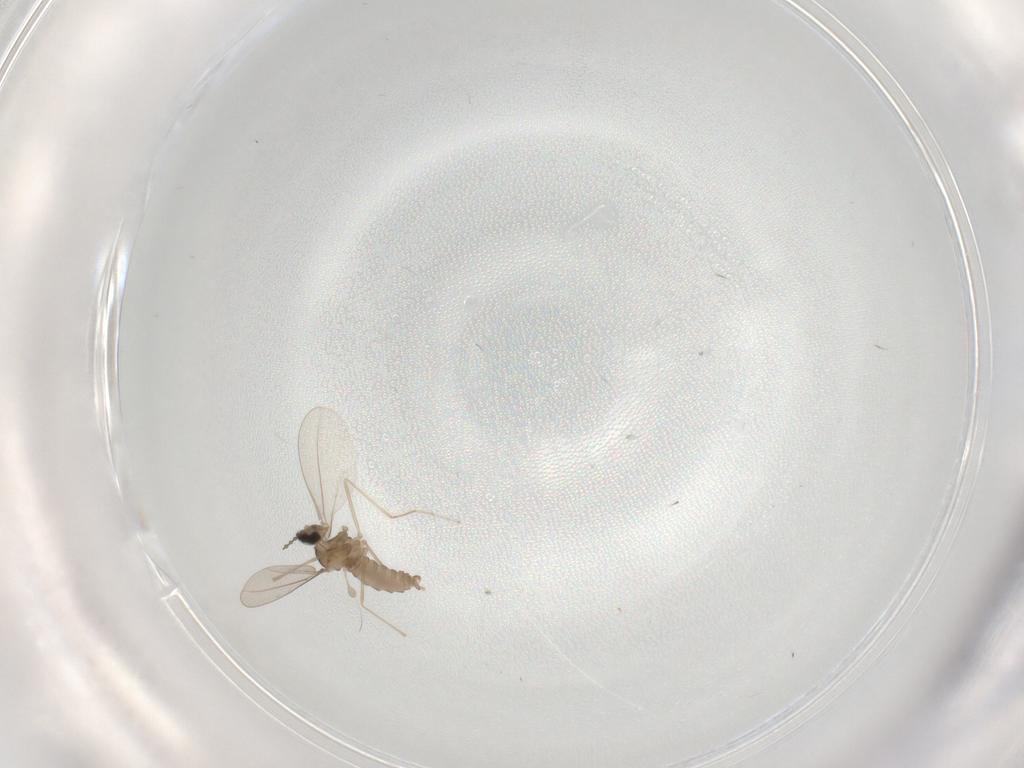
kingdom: Animalia
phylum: Arthropoda
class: Insecta
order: Diptera
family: Cecidomyiidae
